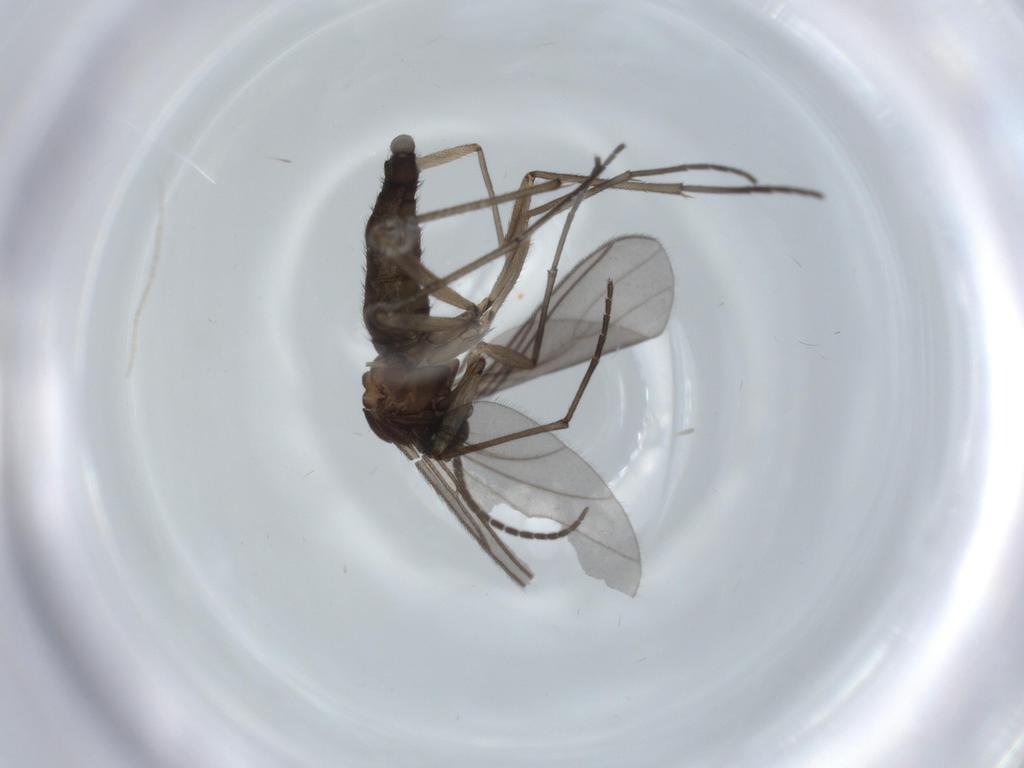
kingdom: Animalia
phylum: Arthropoda
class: Insecta
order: Diptera
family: Sciaridae
